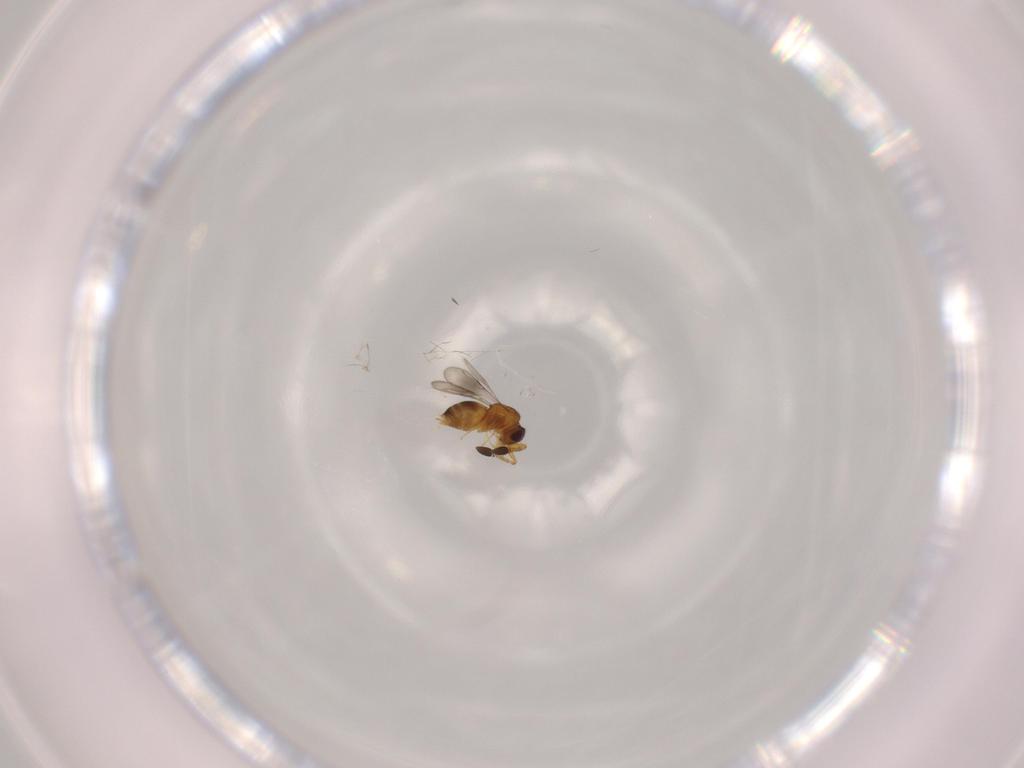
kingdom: Animalia
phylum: Arthropoda
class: Insecta
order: Hymenoptera
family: Scelionidae
